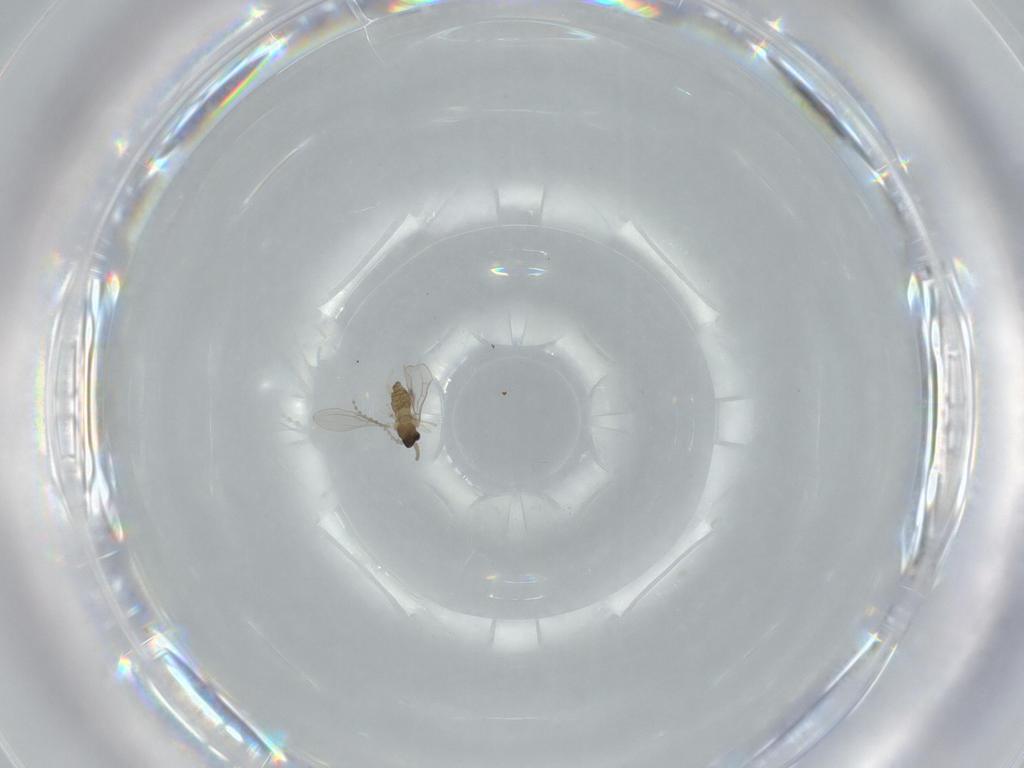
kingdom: Animalia
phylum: Arthropoda
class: Insecta
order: Diptera
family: Cecidomyiidae
